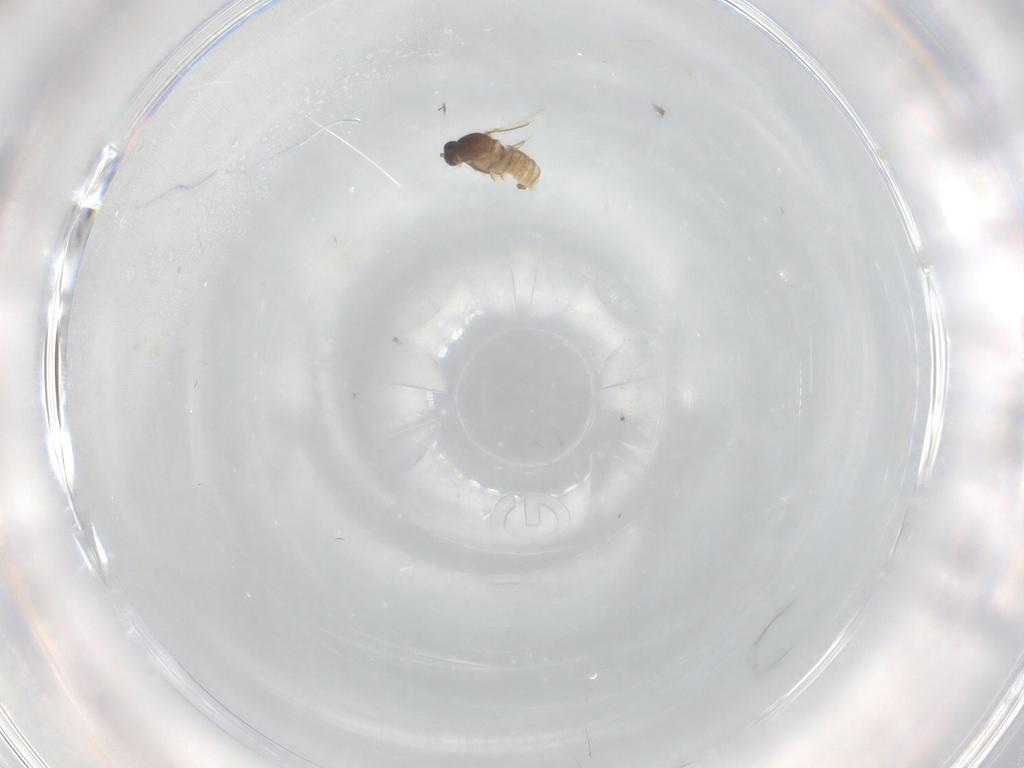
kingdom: Animalia
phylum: Arthropoda
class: Insecta
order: Diptera
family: Cecidomyiidae
